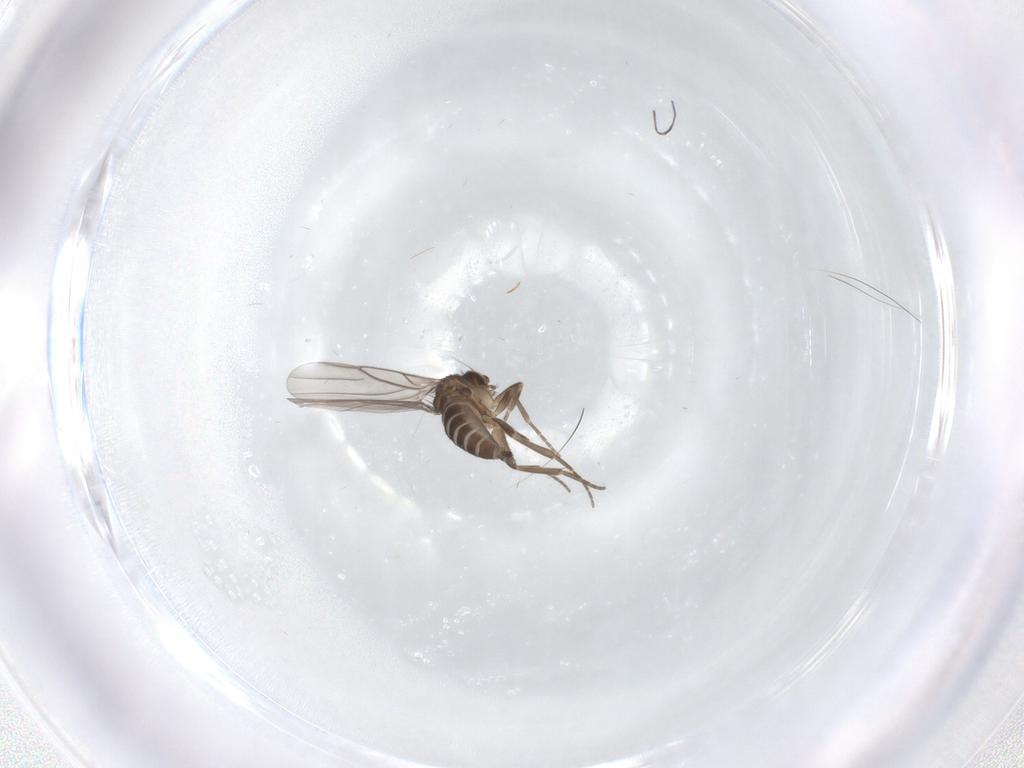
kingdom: Animalia
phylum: Arthropoda
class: Insecta
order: Diptera
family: Phoridae
